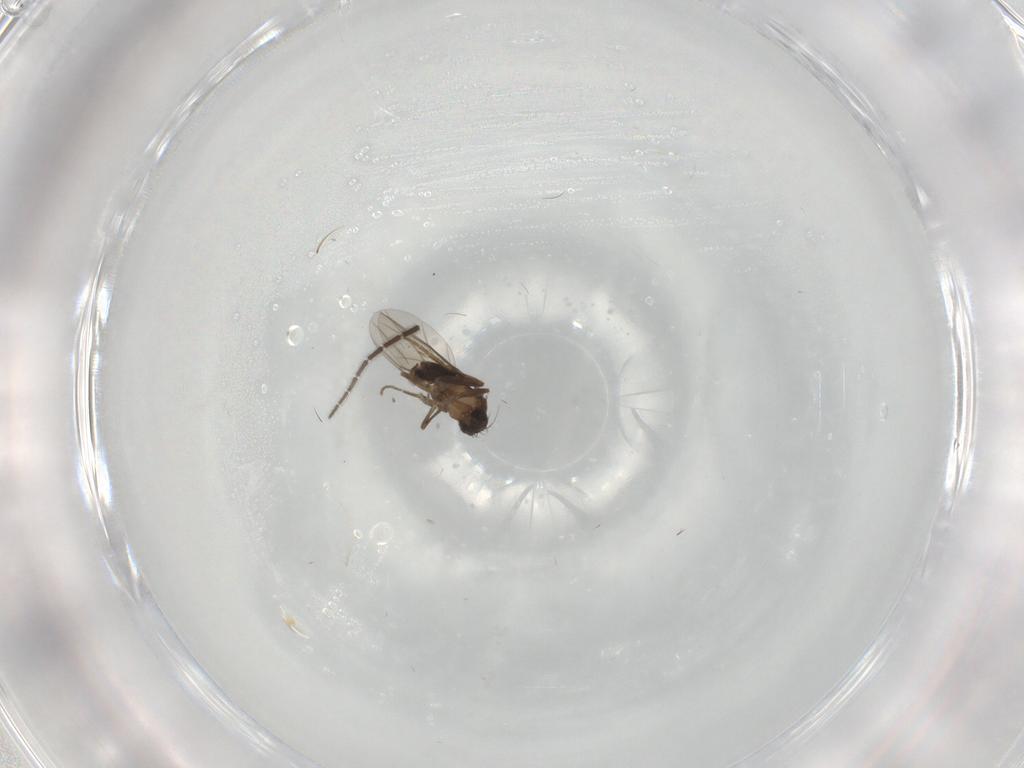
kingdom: Animalia
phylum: Arthropoda
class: Insecta
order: Diptera
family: Phoridae
